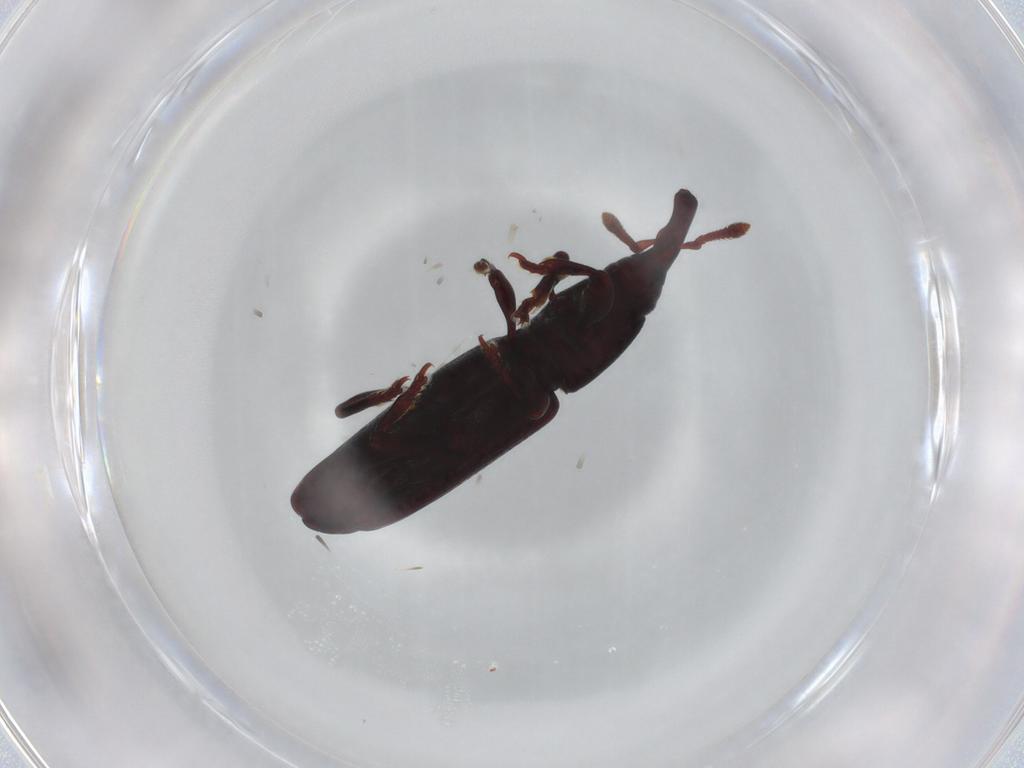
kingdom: Animalia
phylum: Arthropoda
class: Insecta
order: Coleoptera
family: Curculionidae
